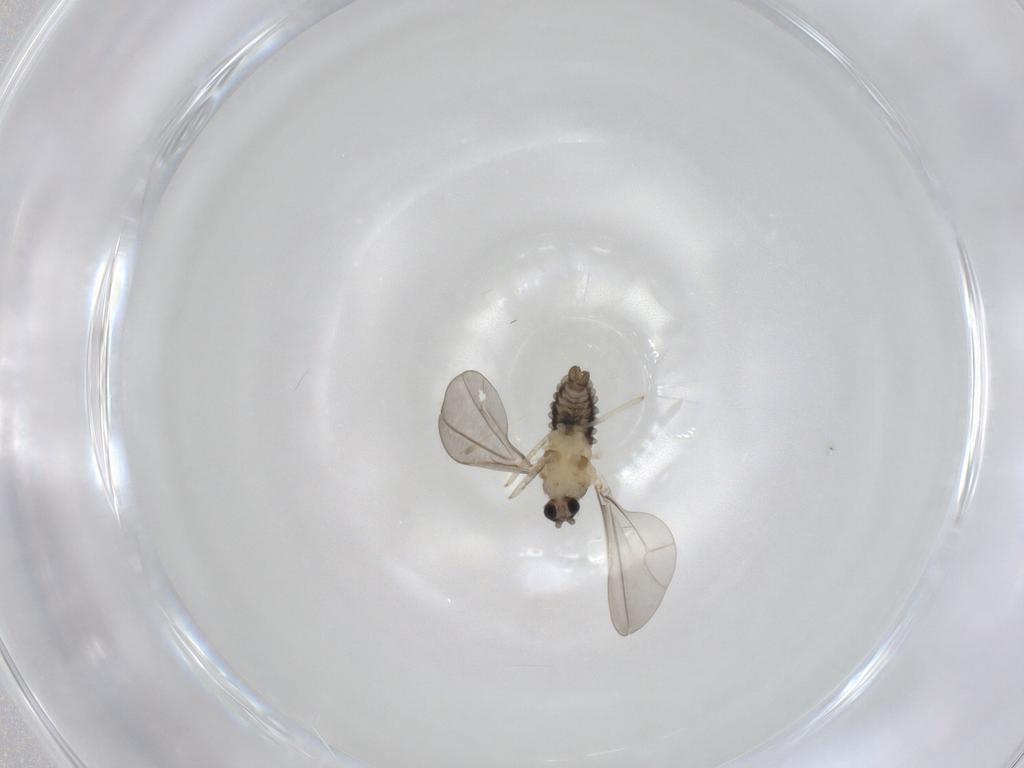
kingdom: Animalia
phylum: Arthropoda
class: Insecta
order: Diptera
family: Cecidomyiidae
